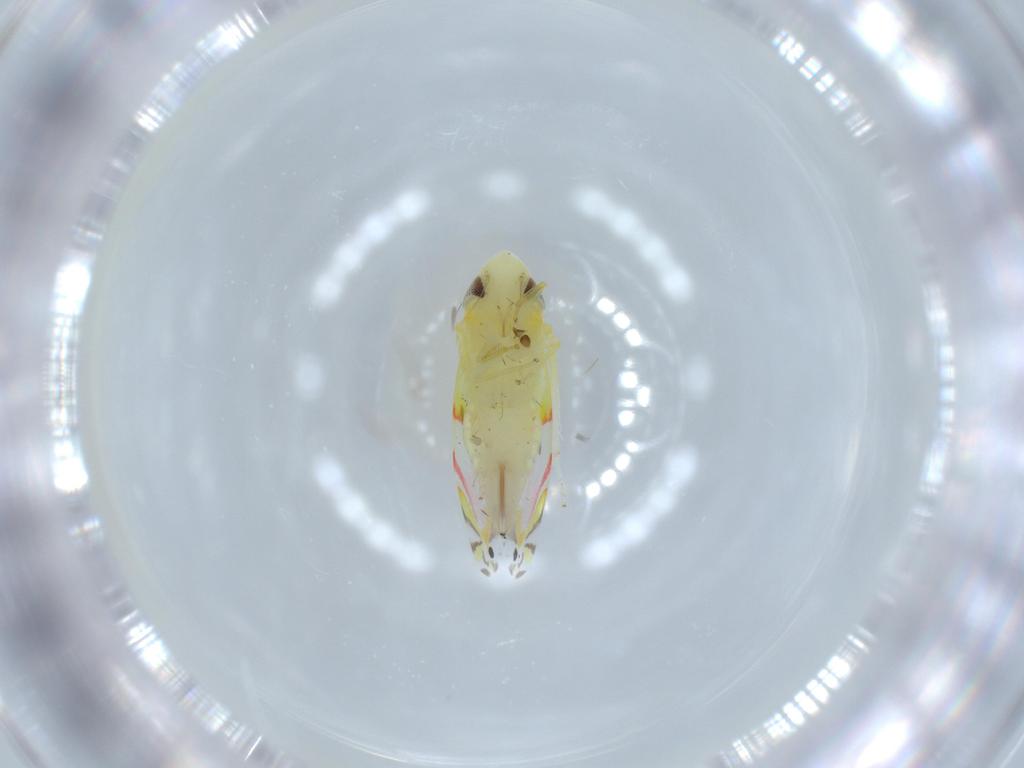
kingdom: Animalia
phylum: Arthropoda
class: Insecta
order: Hemiptera
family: Cicadellidae
